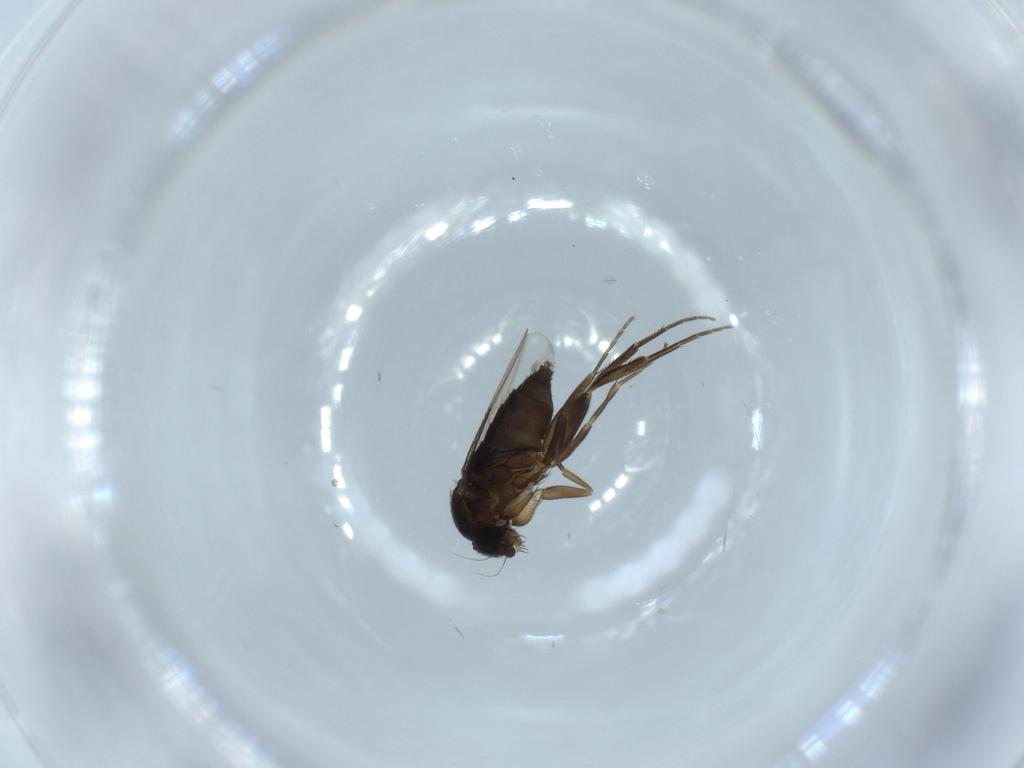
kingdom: Animalia
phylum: Arthropoda
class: Insecta
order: Diptera
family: Phoridae
